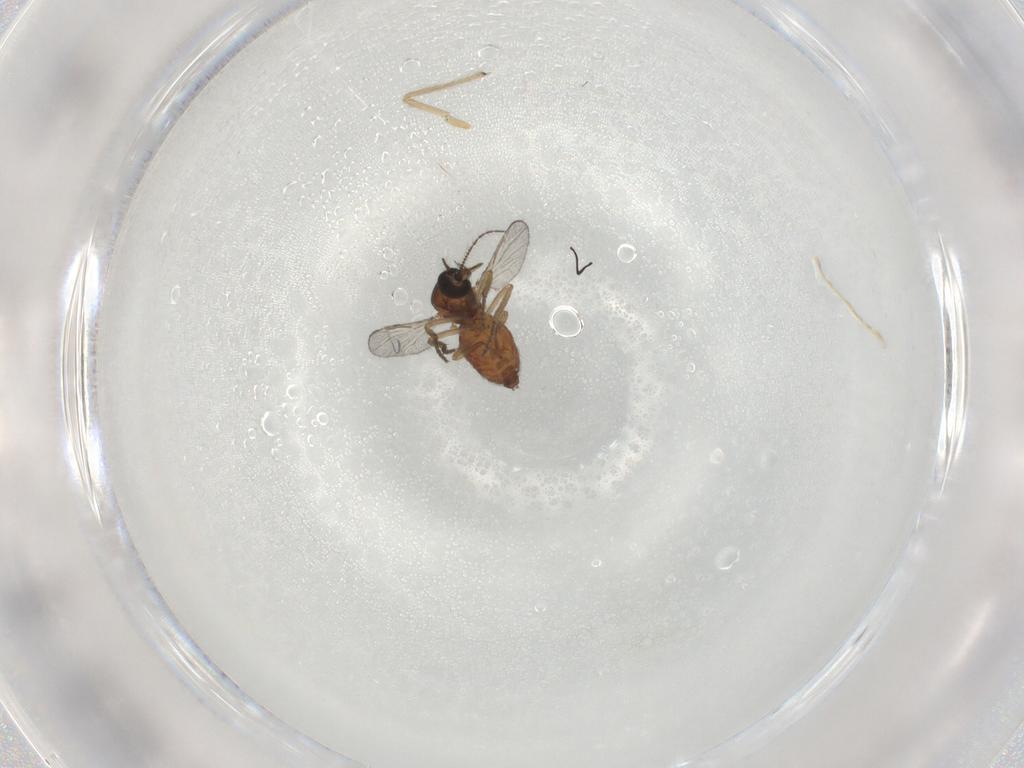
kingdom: Animalia
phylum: Arthropoda
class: Insecta
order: Diptera
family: Chironomidae
